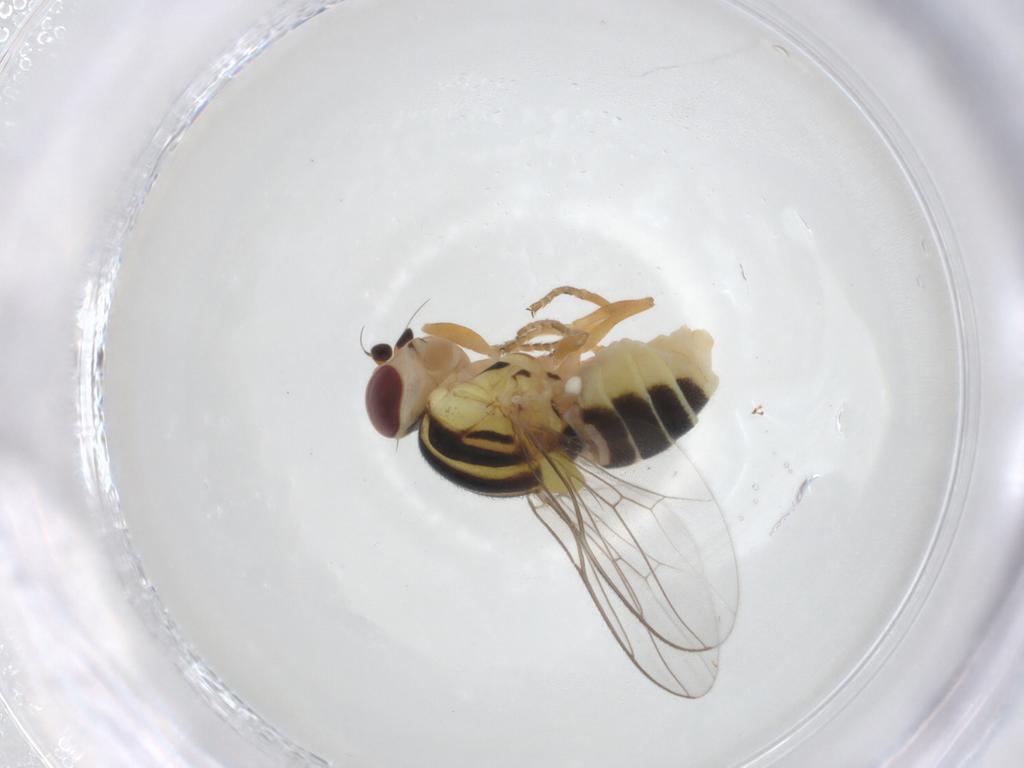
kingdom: Animalia
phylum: Arthropoda
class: Insecta
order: Diptera
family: Chloropidae
